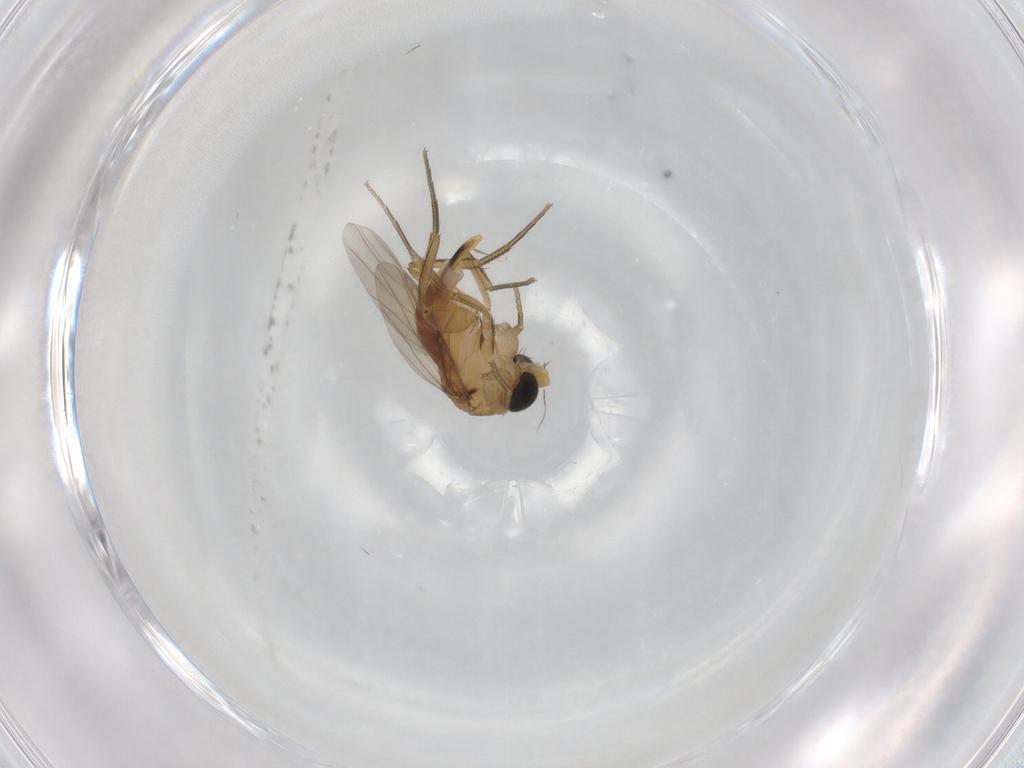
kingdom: Animalia
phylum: Arthropoda
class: Insecta
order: Diptera
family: Phoridae
